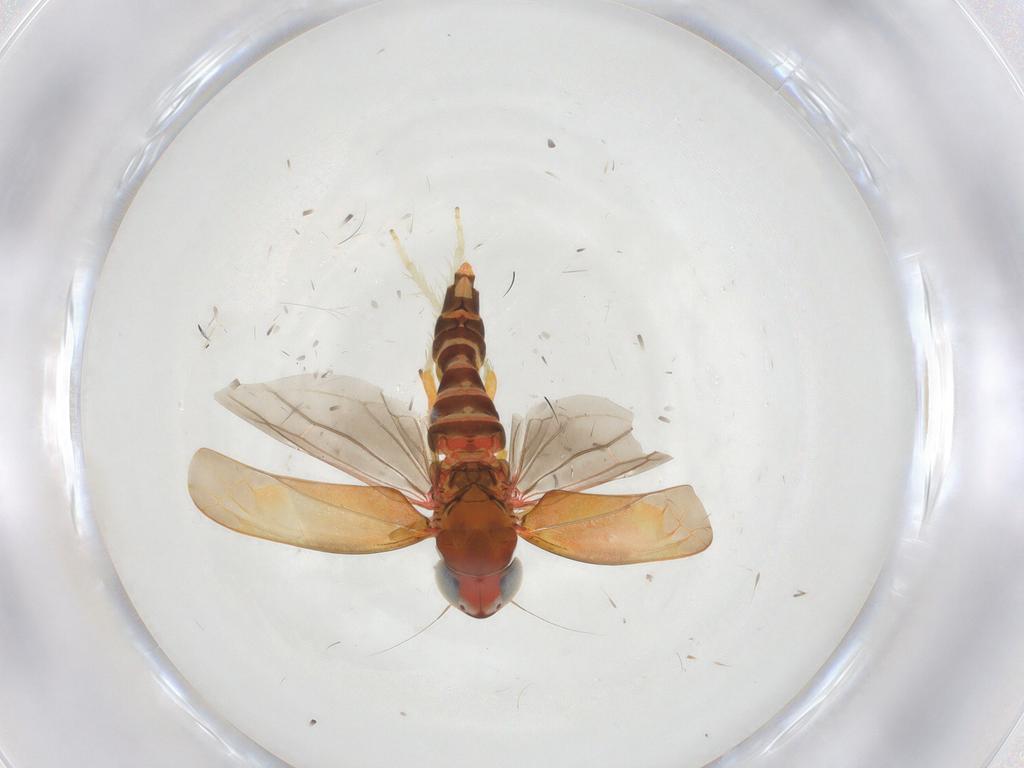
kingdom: Animalia
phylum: Arthropoda
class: Insecta
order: Hemiptera
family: Cicadellidae
